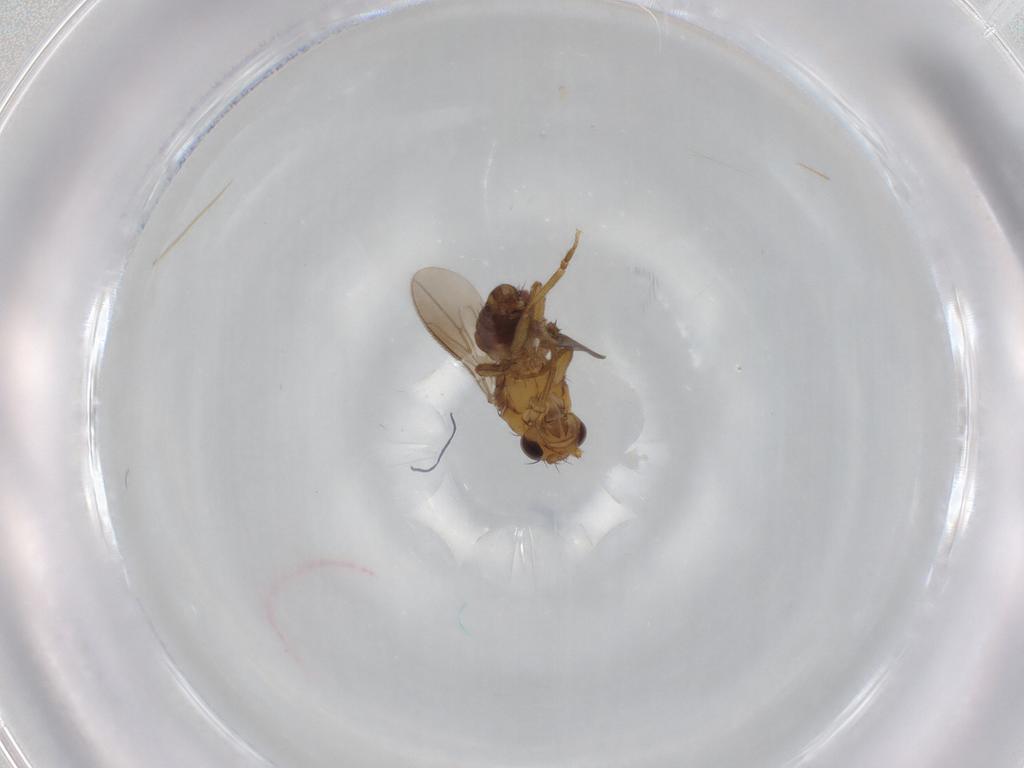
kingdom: Animalia
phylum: Arthropoda
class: Insecta
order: Diptera
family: Sphaeroceridae
